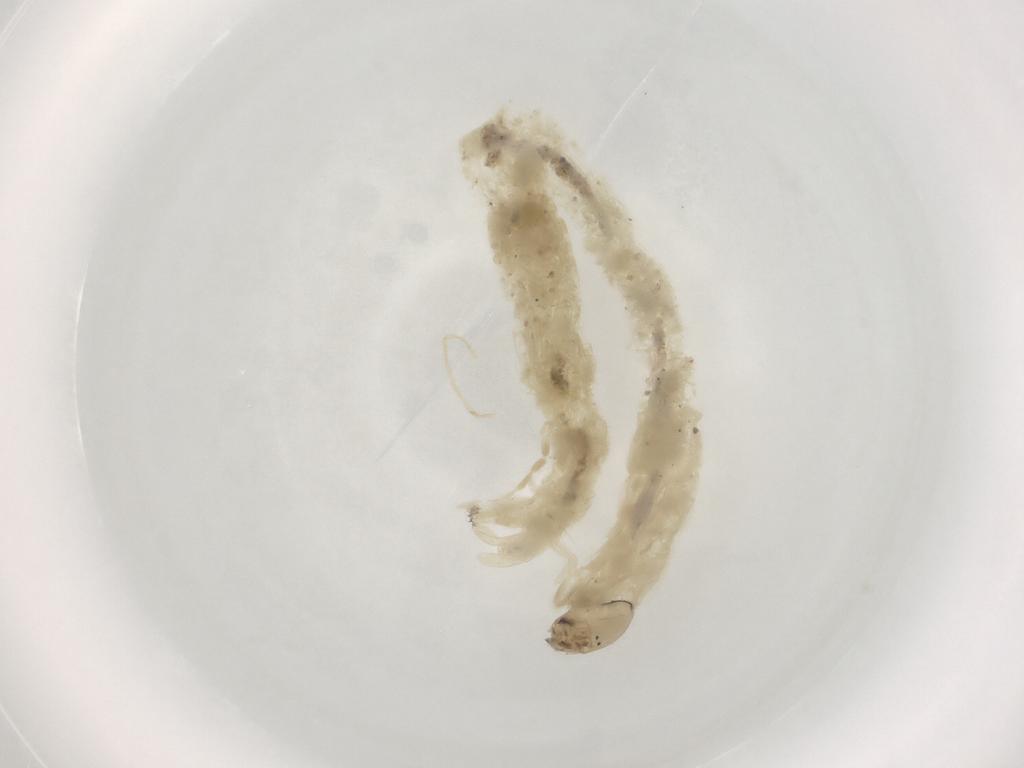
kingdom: Animalia
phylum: Arthropoda
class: Insecta
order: Diptera
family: Chironomidae
